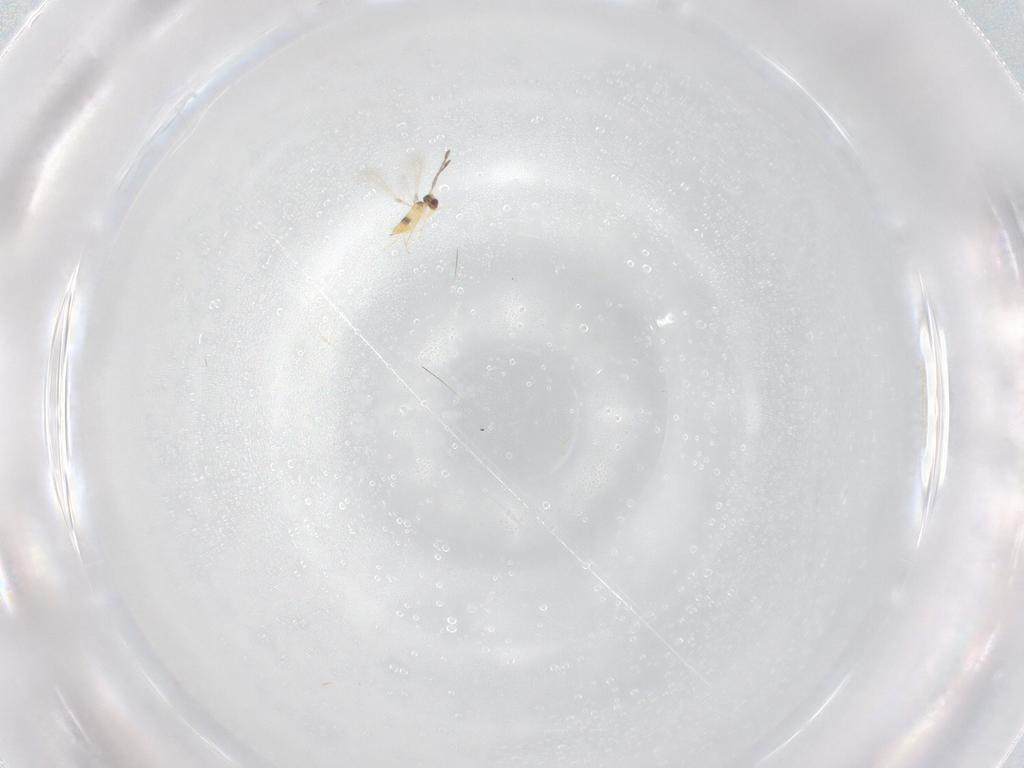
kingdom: Animalia
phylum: Arthropoda
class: Insecta
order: Hymenoptera
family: Mymaridae
